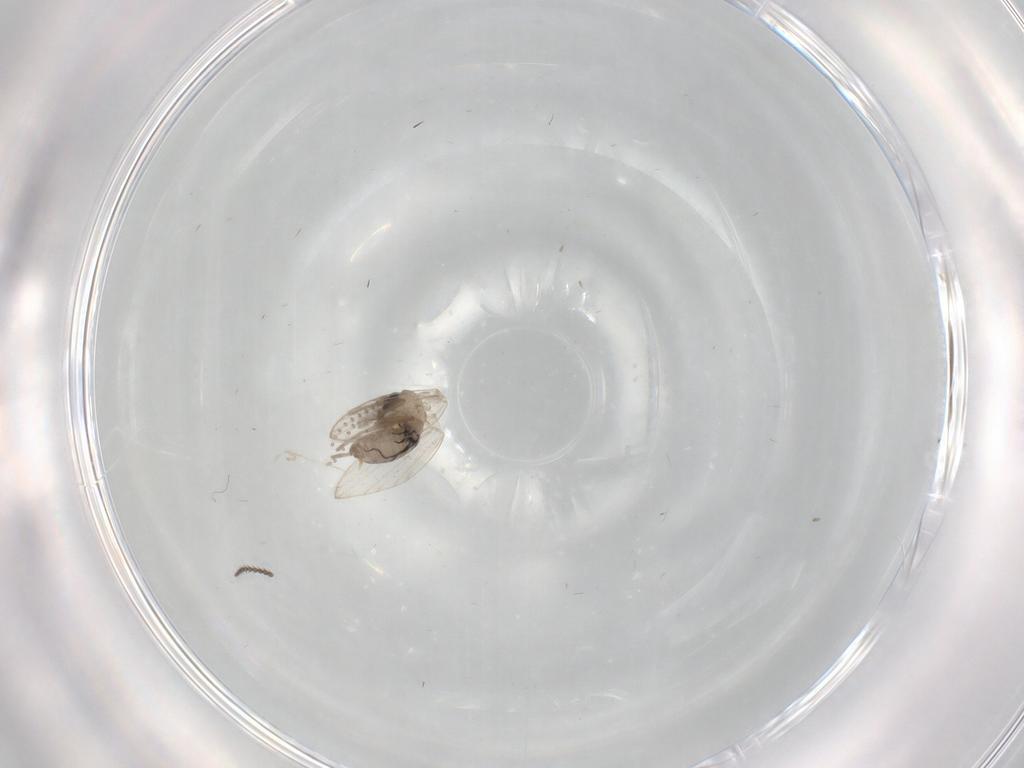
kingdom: Animalia
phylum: Arthropoda
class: Insecta
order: Diptera
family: Psychodidae
